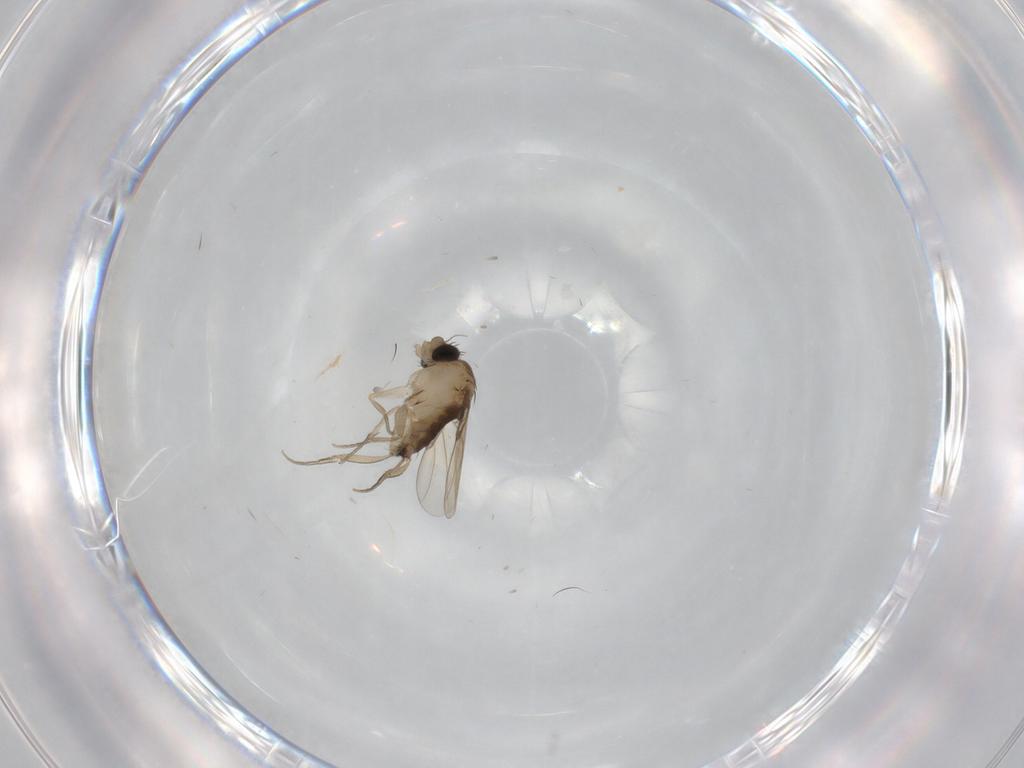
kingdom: Animalia
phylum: Arthropoda
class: Insecta
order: Diptera
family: Phoridae
